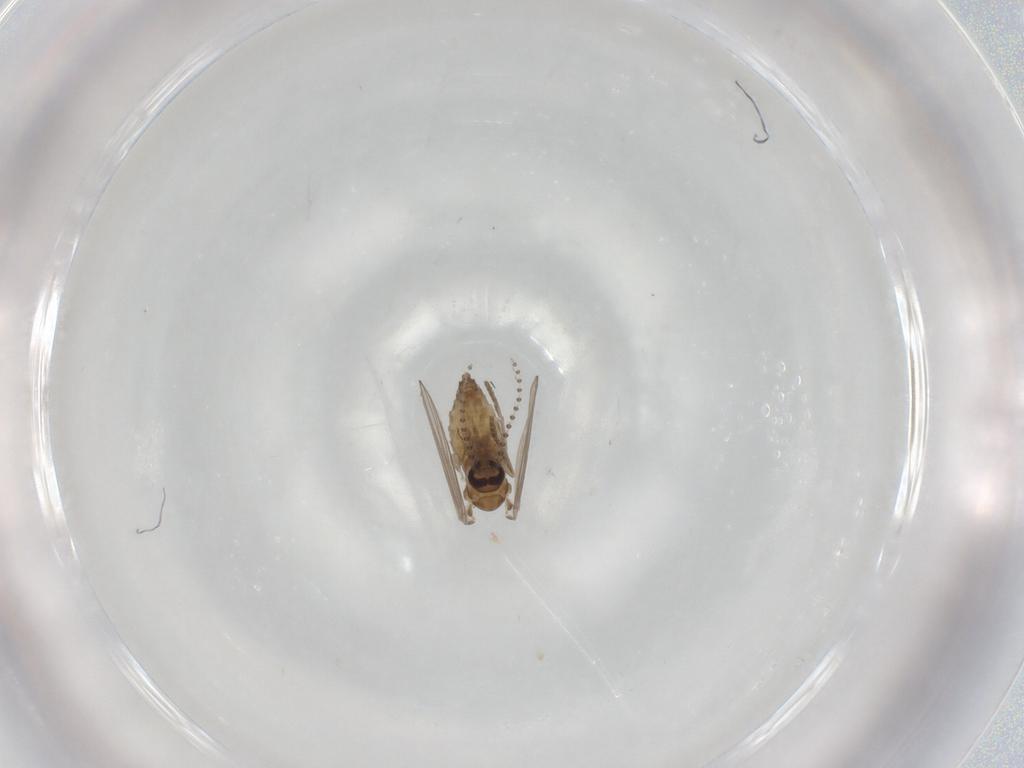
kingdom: Animalia
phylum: Arthropoda
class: Insecta
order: Diptera
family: Psychodidae
